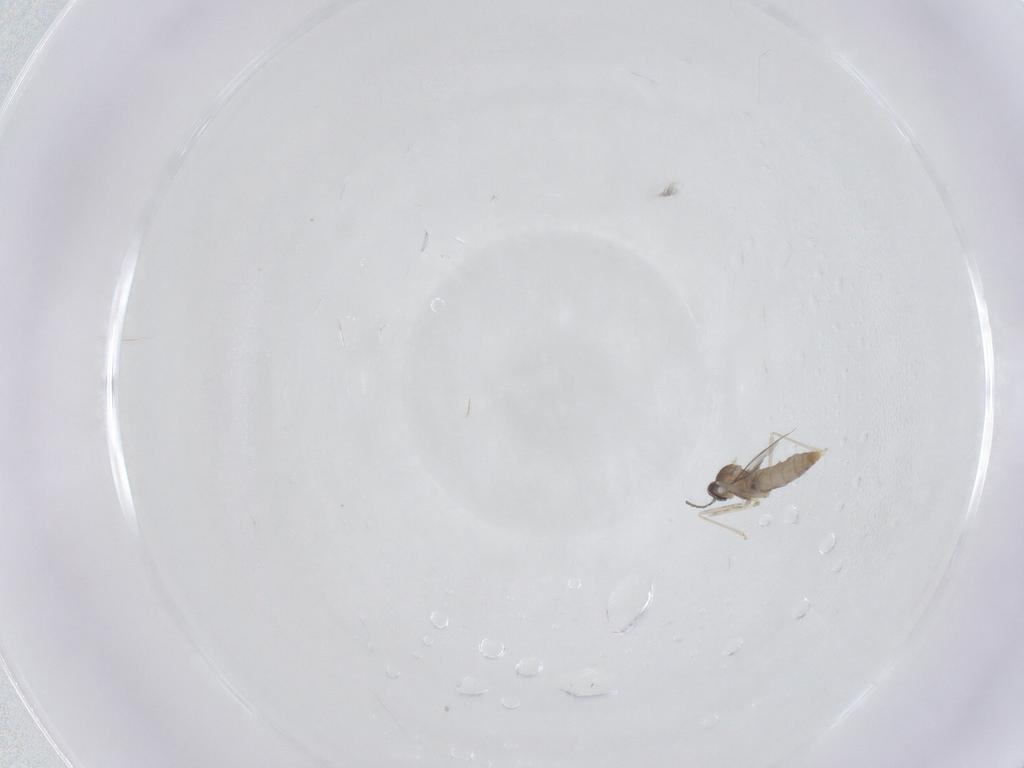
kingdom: Animalia
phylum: Arthropoda
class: Insecta
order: Diptera
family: Cecidomyiidae
